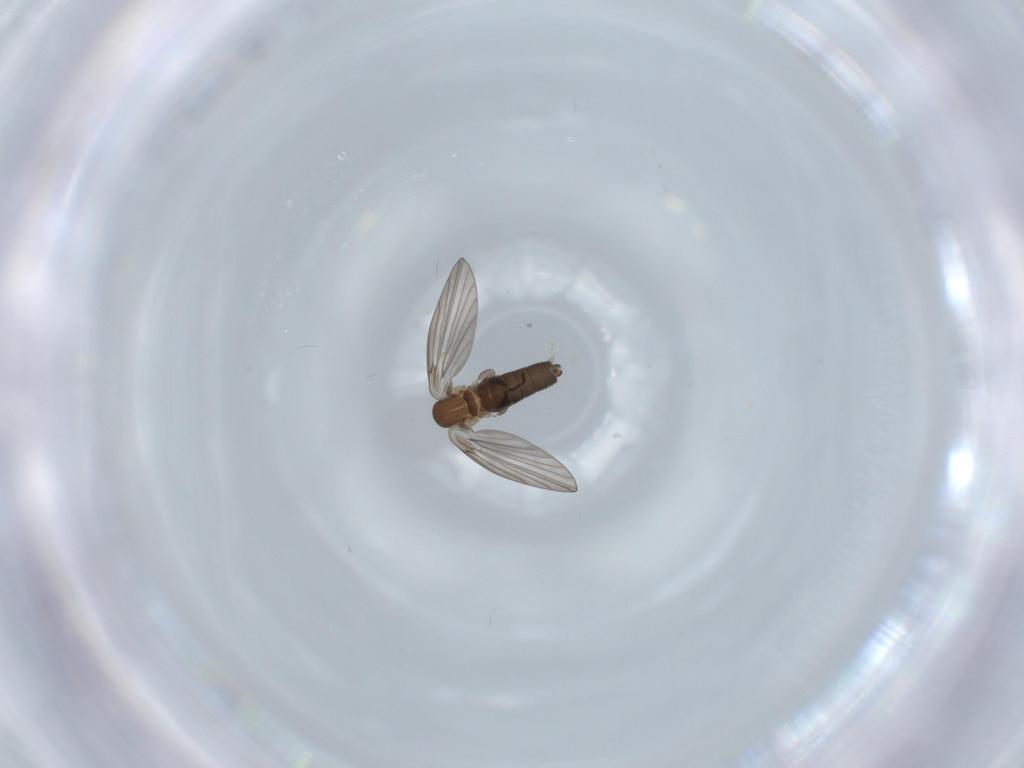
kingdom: Animalia
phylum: Arthropoda
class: Insecta
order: Diptera
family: Psychodidae
